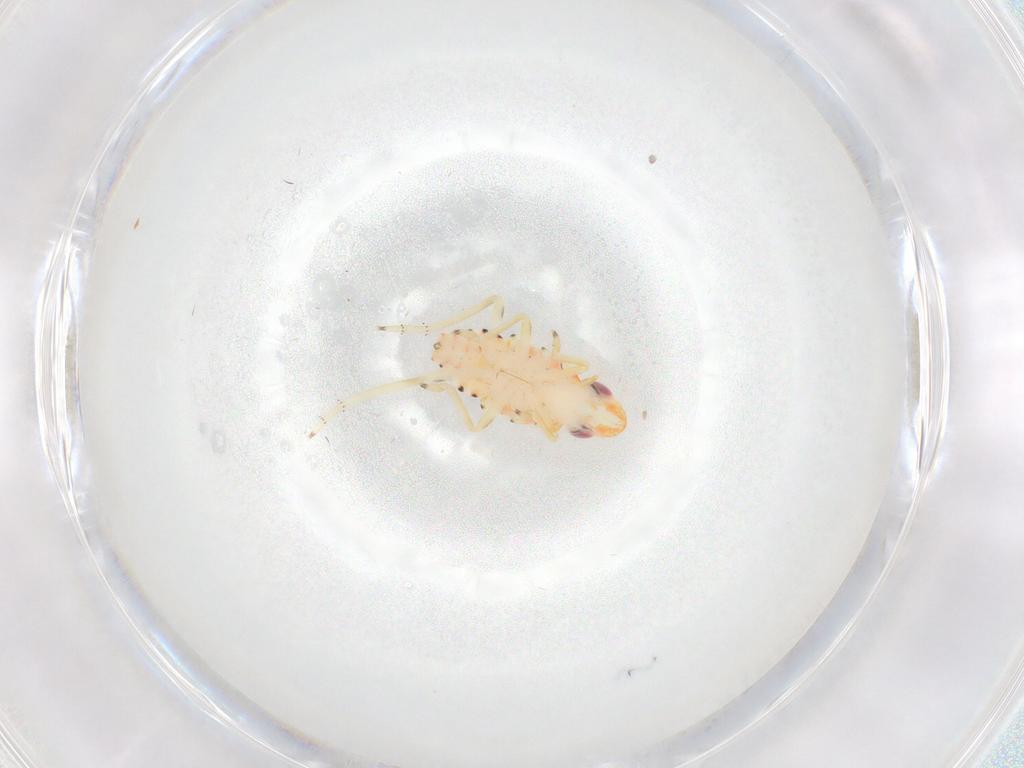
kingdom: Animalia
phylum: Arthropoda
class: Insecta
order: Hemiptera
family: Tropiduchidae
